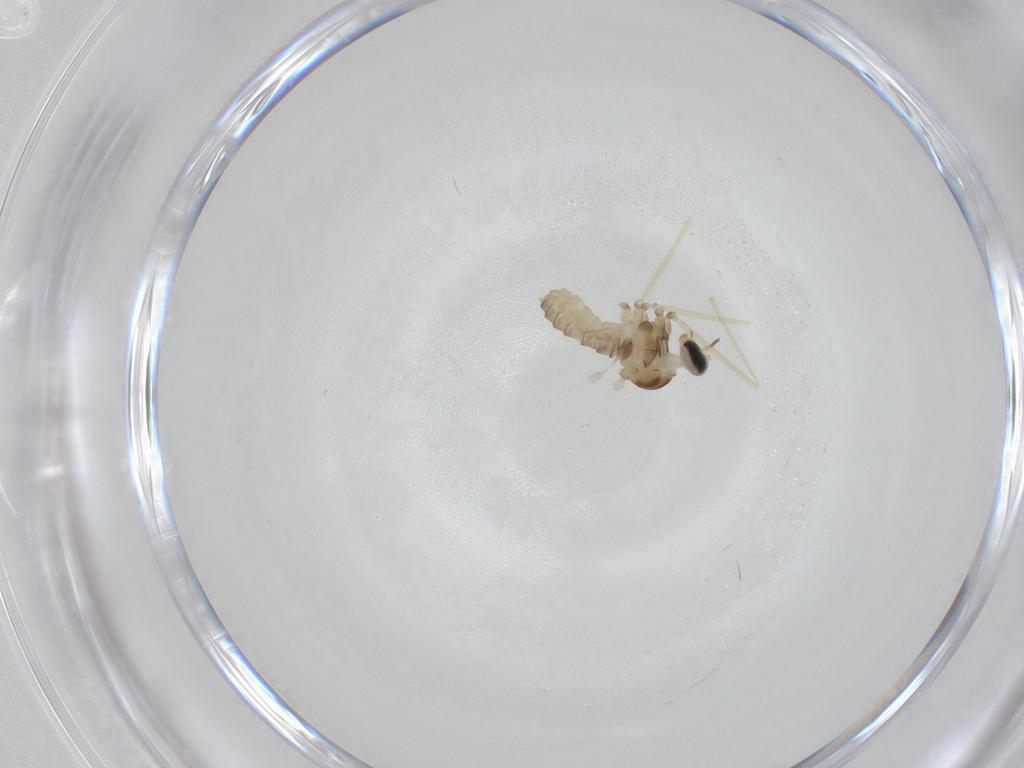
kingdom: Animalia
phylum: Arthropoda
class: Insecta
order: Diptera
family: Cecidomyiidae
